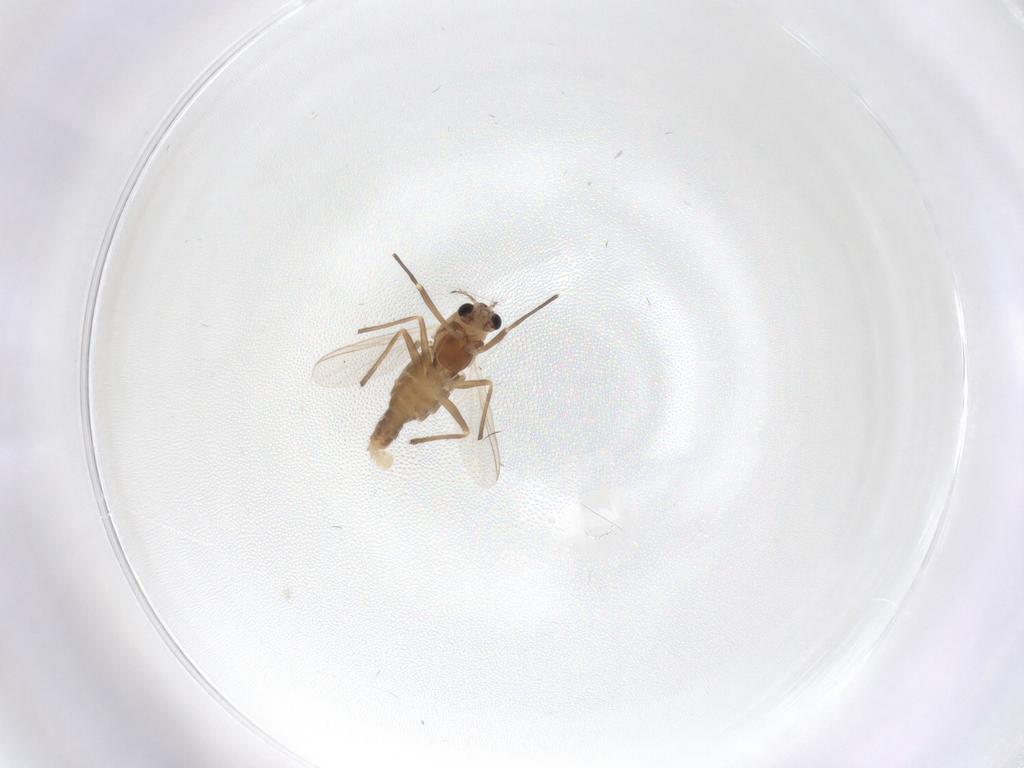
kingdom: Animalia
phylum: Arthropoda
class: Insecta
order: Diptera
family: Chironomidae
